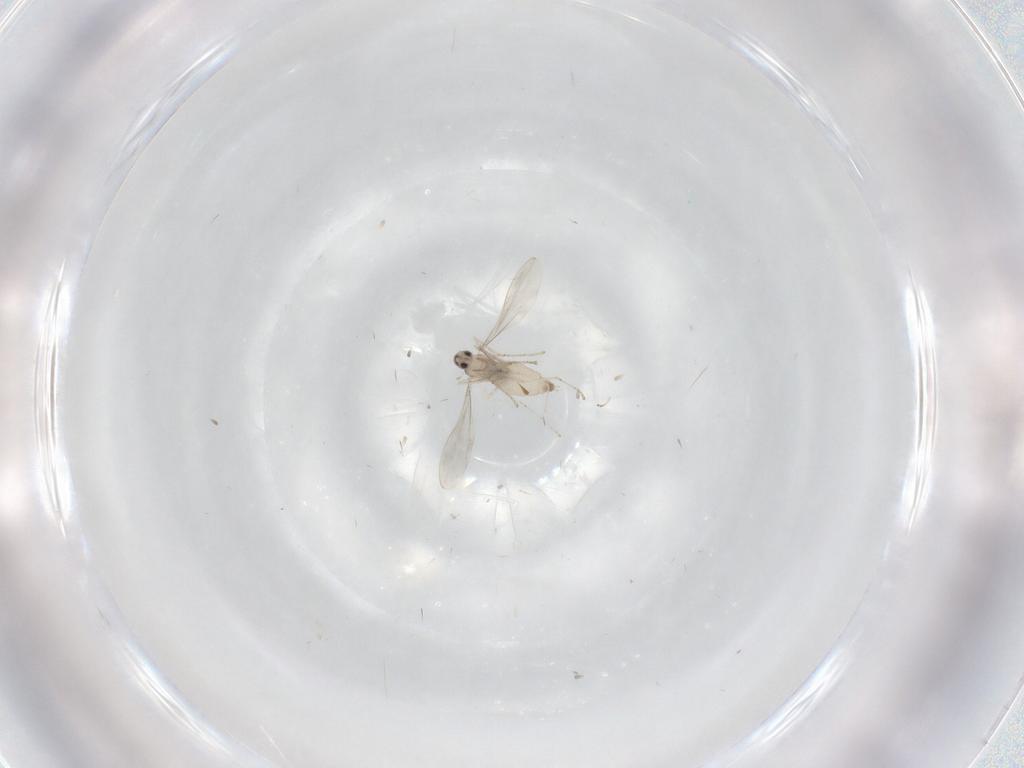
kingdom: Animalia
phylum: Arthropoda
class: Insecta
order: Diptera
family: Cecidomyiidae
